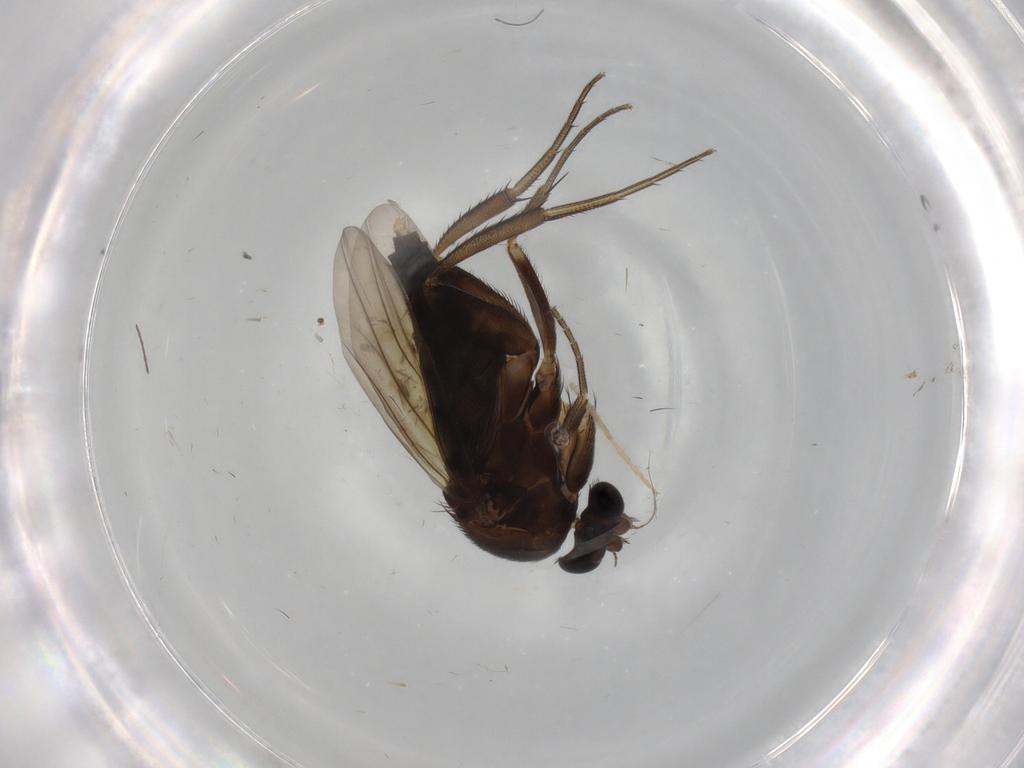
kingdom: Animalia
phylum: Arthropoda
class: Insecta
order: Diptera
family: Phoridae
